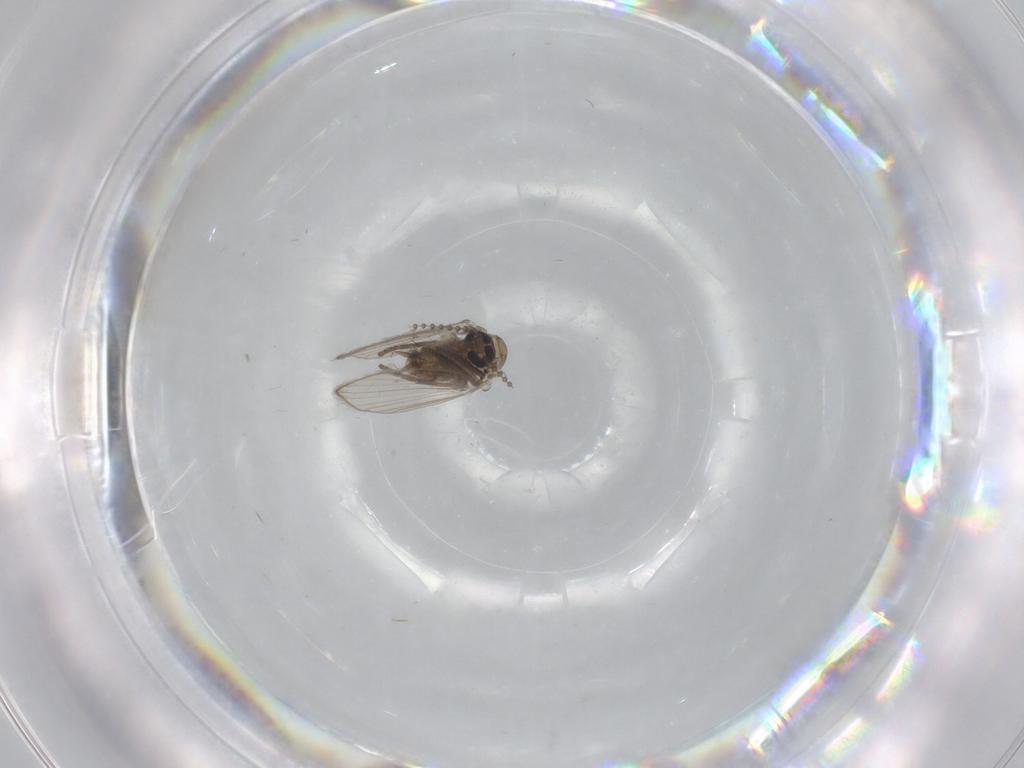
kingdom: Animalia
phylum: Arthropoda
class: Insecta
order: Diptera
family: Psychodidae
